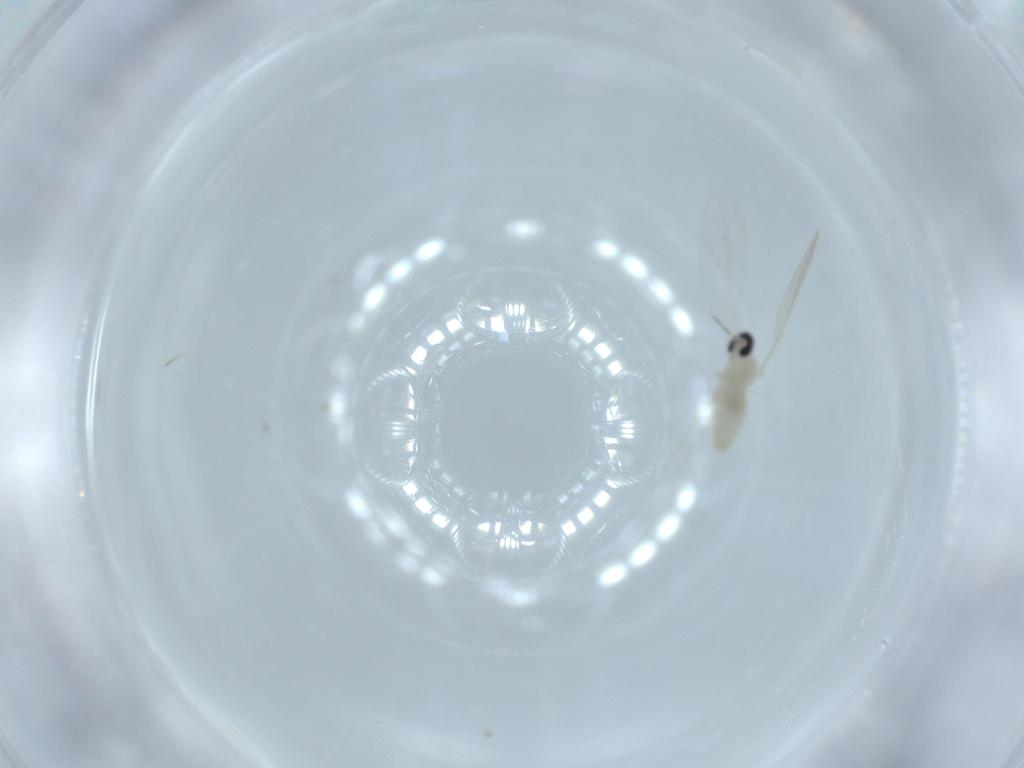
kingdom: Animalia
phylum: Arthropoda
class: Insecta
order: Diptera
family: Cecidomyiidae
